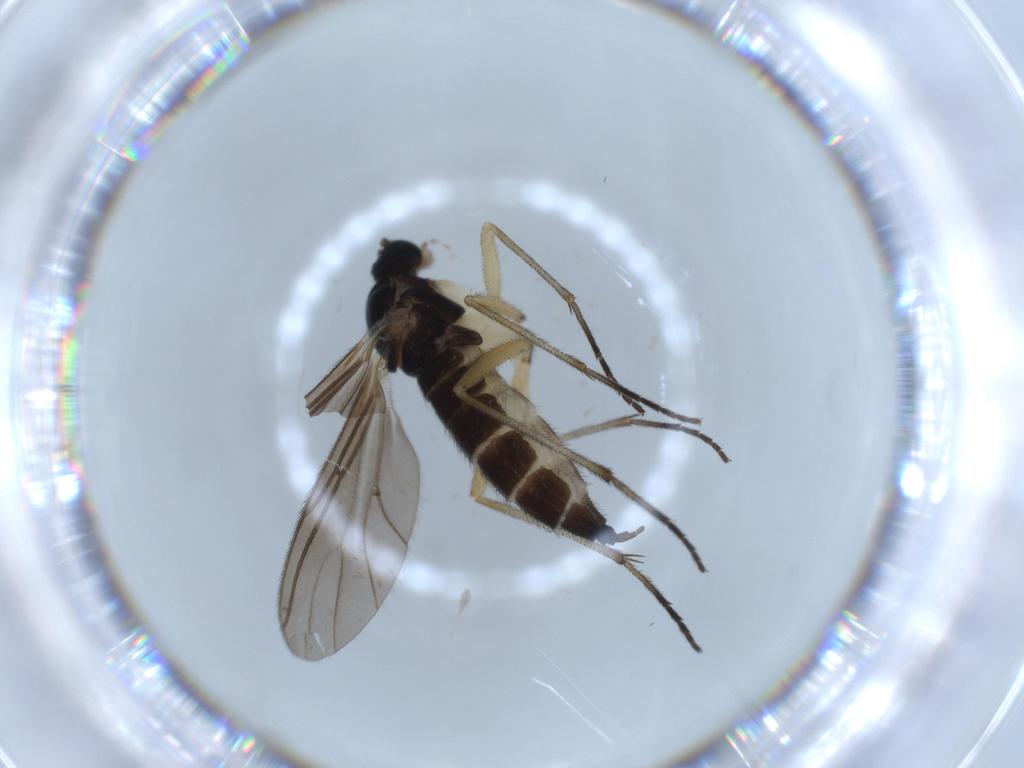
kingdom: Animalia
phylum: Arthropoda
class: Insecta
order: Diptera
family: Sciaridae
